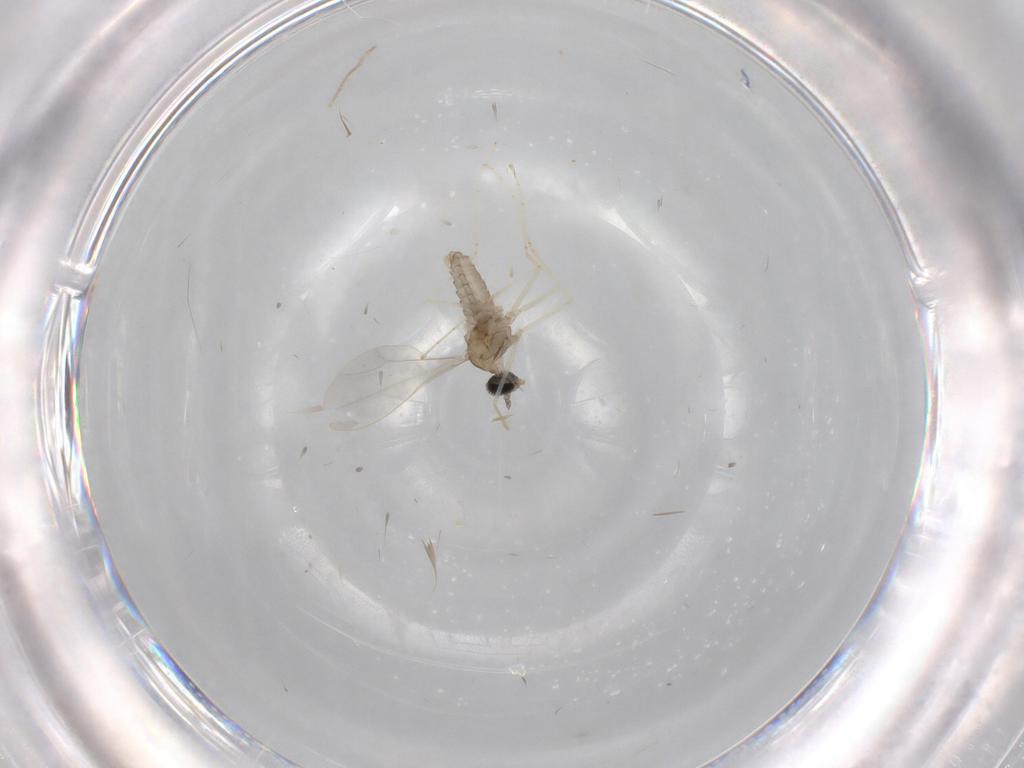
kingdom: Animalia
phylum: Arthropoda
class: Insecta
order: Diptera
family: Cecidomyiidae
